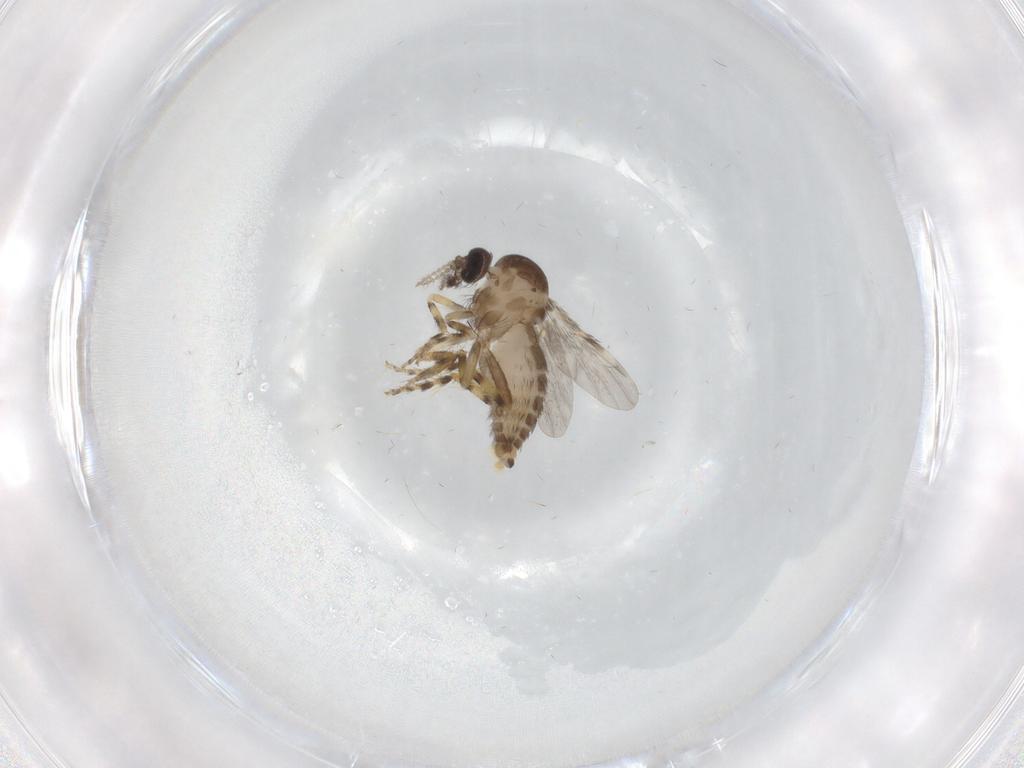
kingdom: Animalia
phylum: Arthropoda
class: Insecta
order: Diptera
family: Ceratopogonidae
